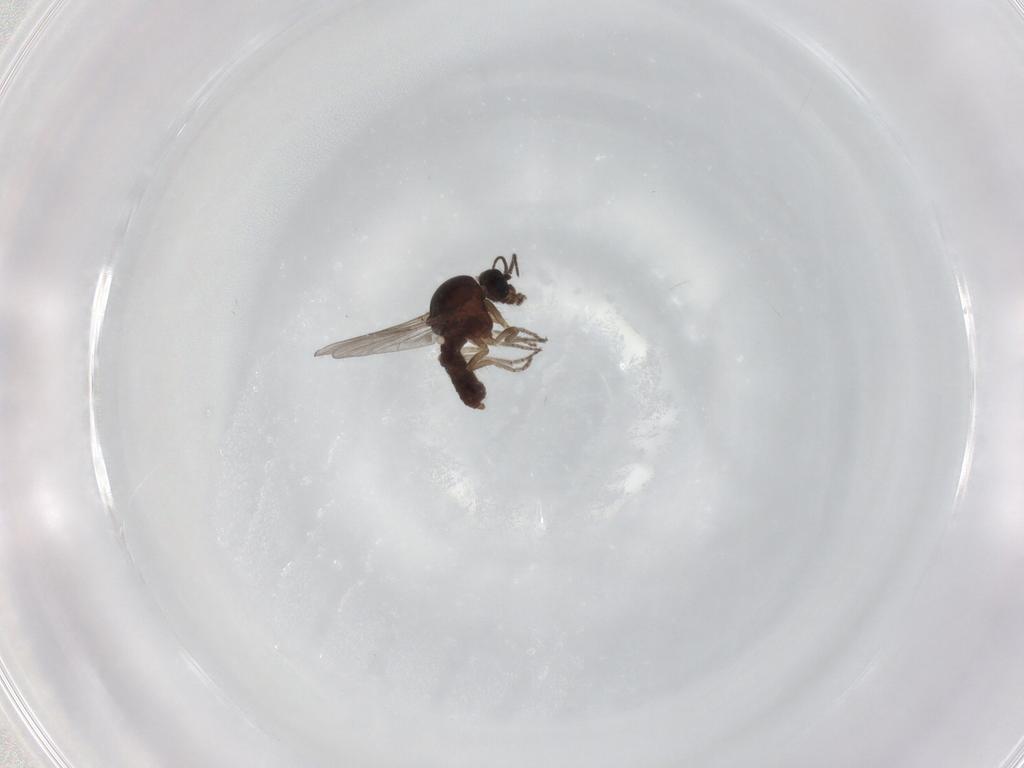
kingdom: Animalia
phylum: Arthropoda
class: Insecta
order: Diptera
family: Ceratopogonidae
